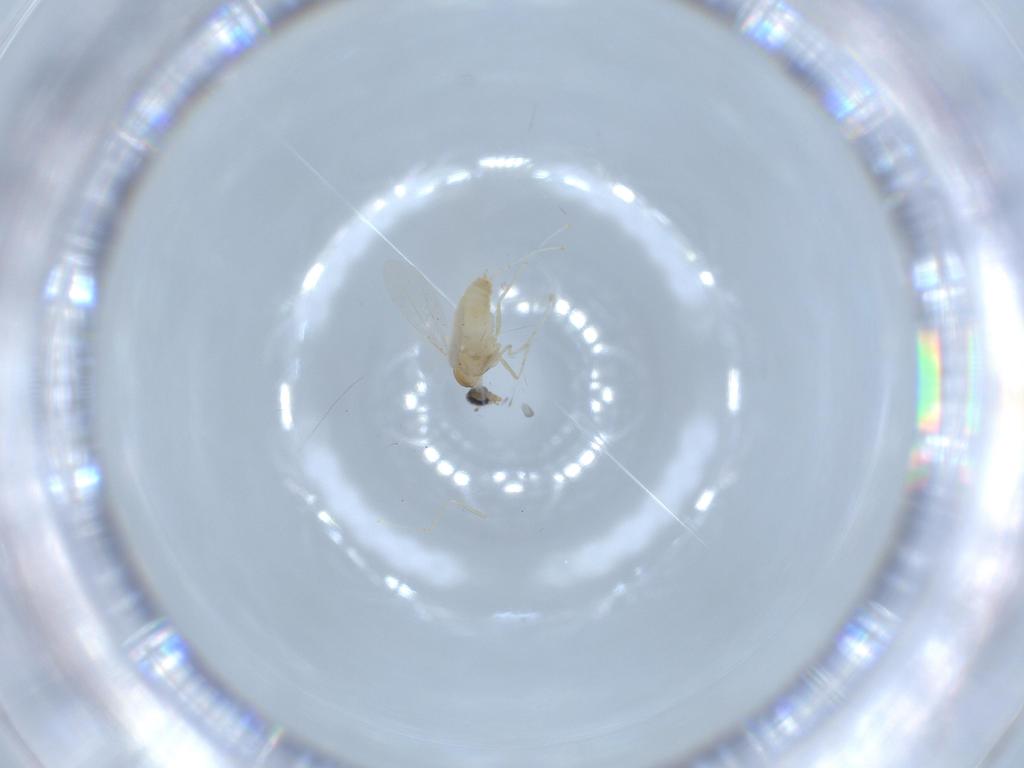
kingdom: Animalia
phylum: Arthropoda
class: Insecta
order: Diptera
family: Cecidomyiidae
